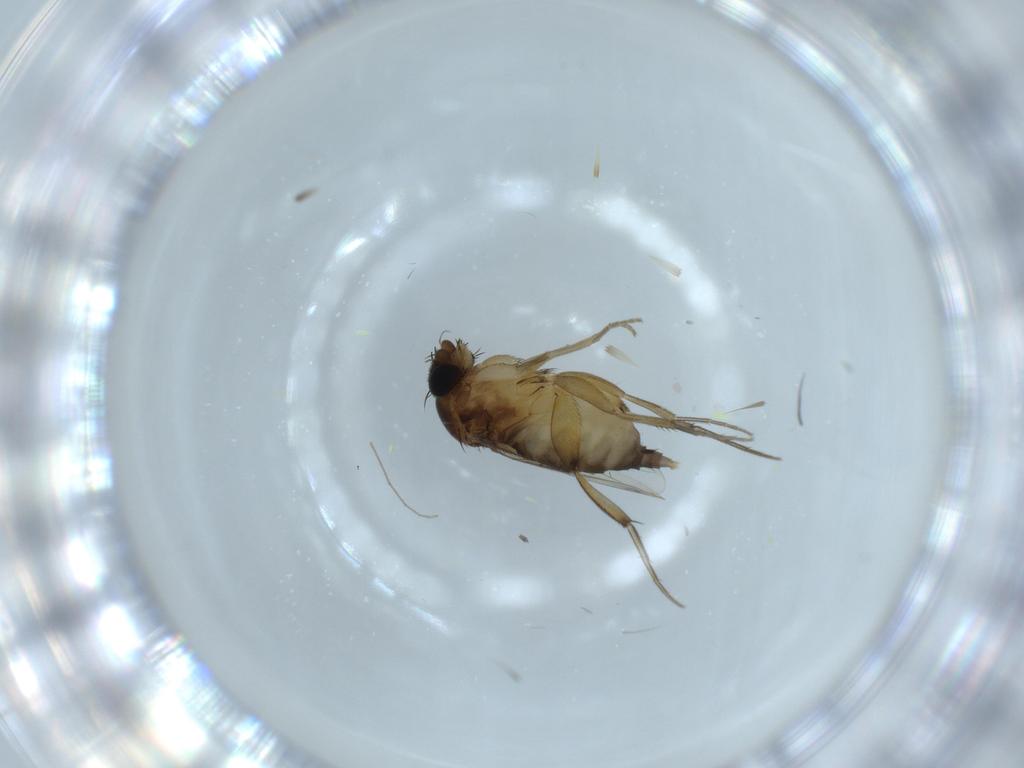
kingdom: Animalia
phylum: Arthropoda
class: Insecta
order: Diptera
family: Phoridae
